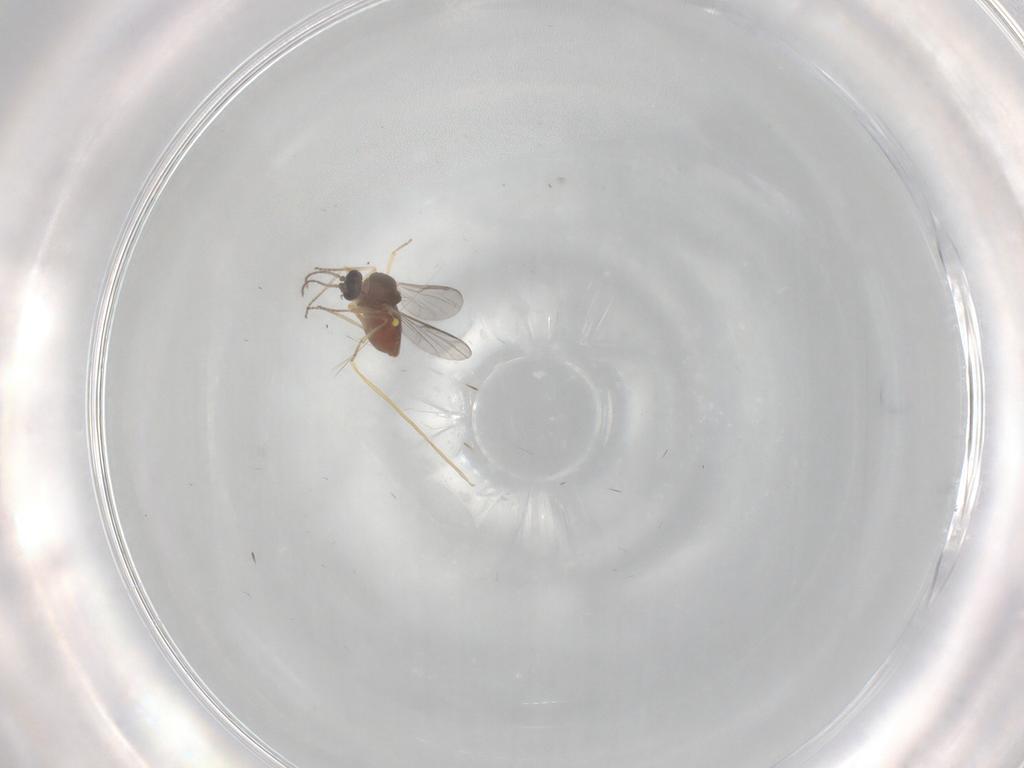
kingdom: Animalia
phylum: Arthropoda
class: Insecta
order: Diptera
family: Ceratopogonidae
